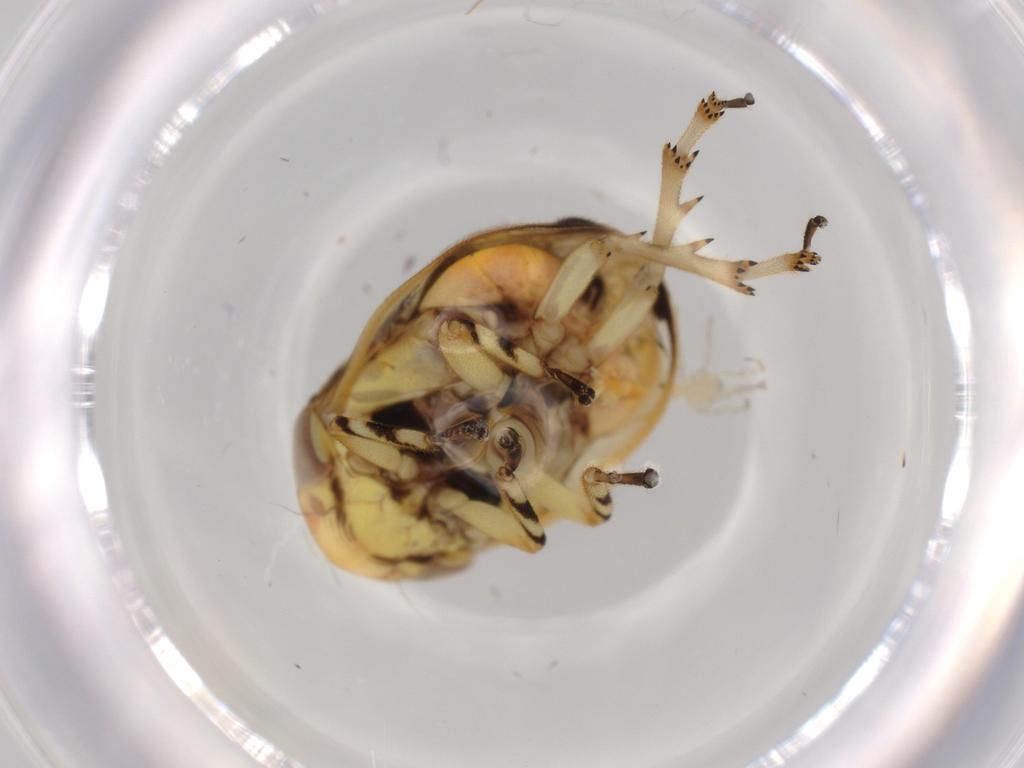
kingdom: Animalia
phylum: Arthropoda
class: Insecta
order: Hemiptera
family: Clastopteridae
